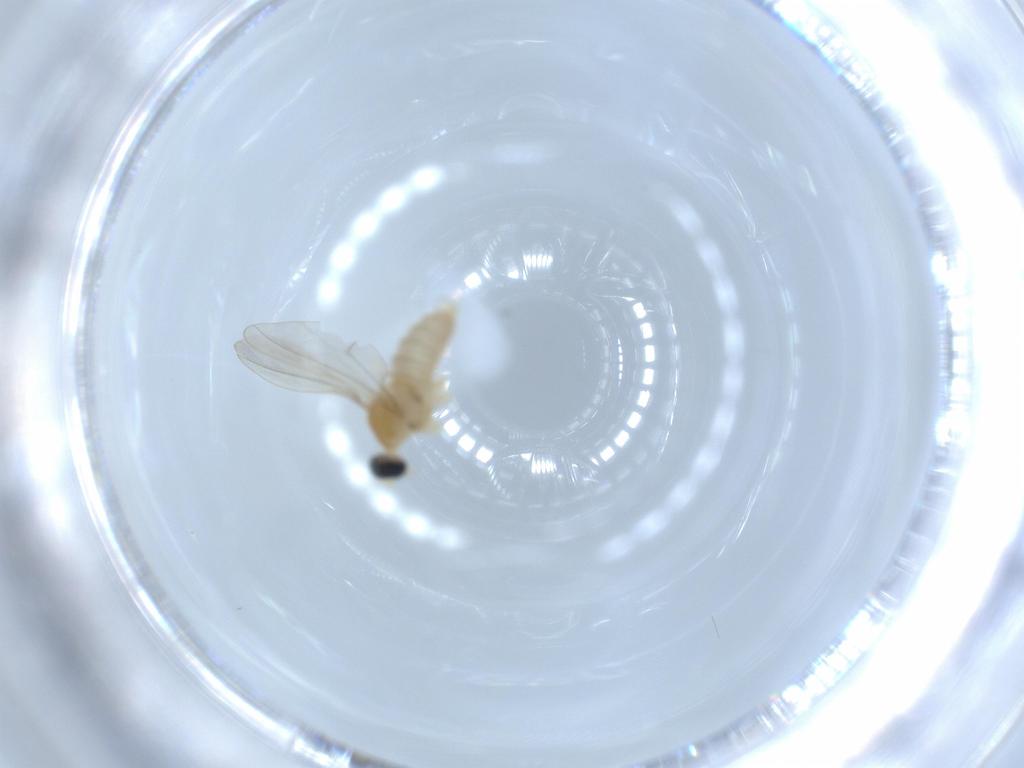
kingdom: Animalia
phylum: Arthropoda
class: Insecta
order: Diptera
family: Cecidomyiidae
